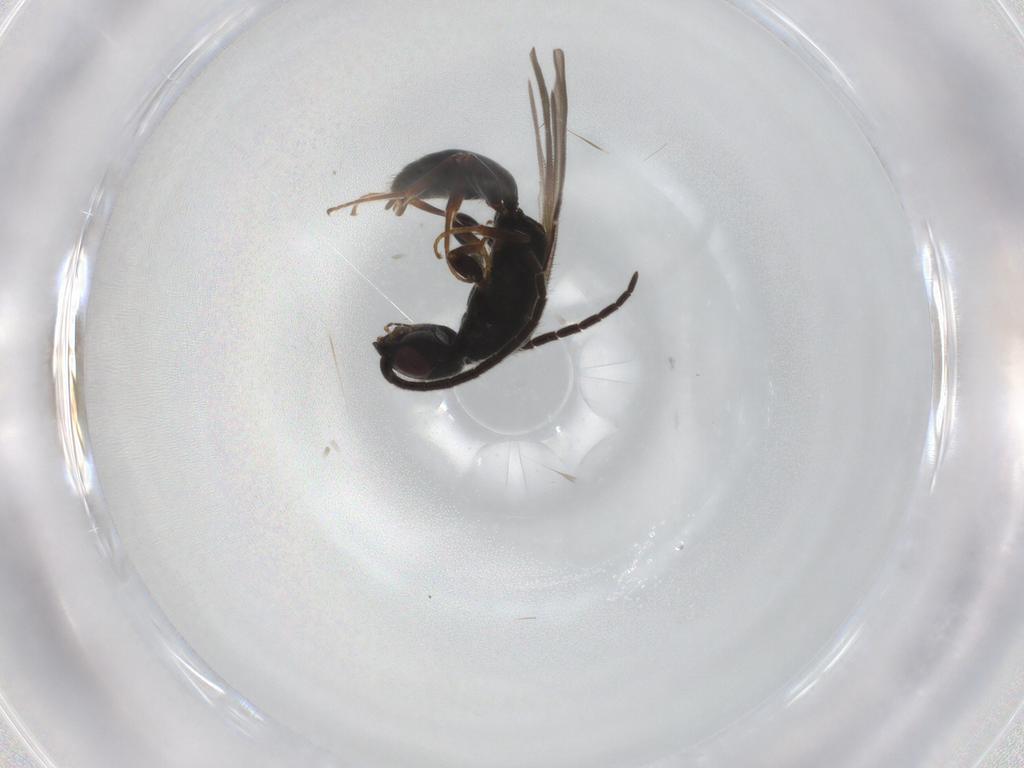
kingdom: Animalia
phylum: Arthropoda
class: Insecta
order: Hymenoptera
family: Bethylidae
